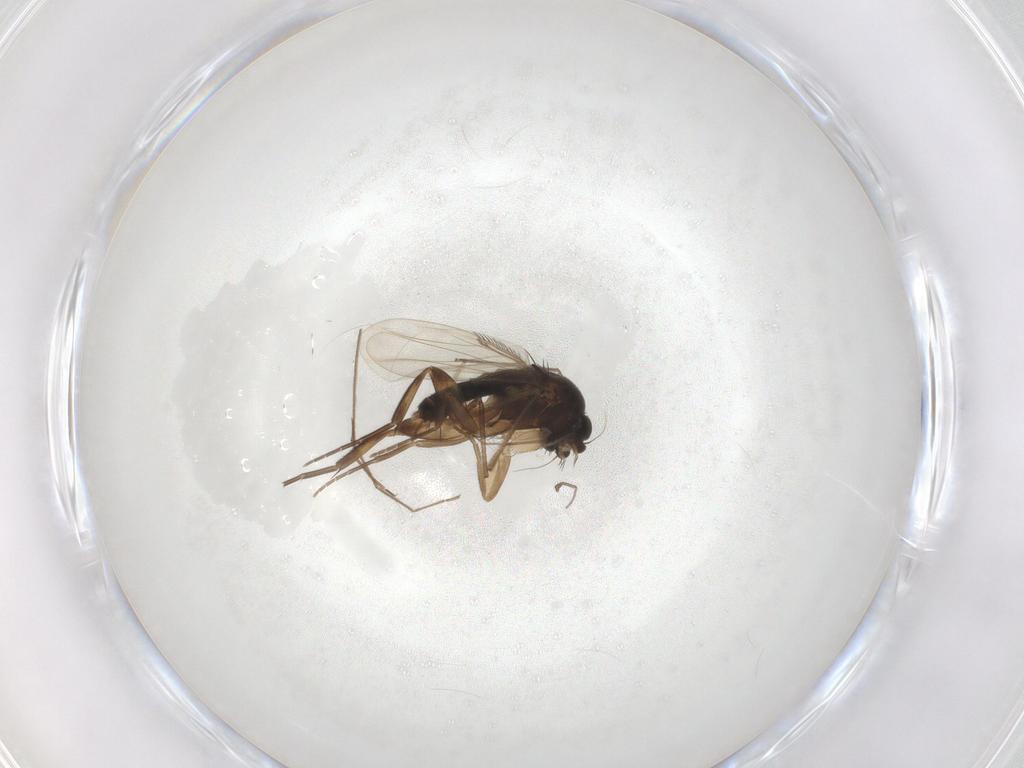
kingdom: Animalia
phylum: Arthropoda
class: Insecta
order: Diptera
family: Phoridae
